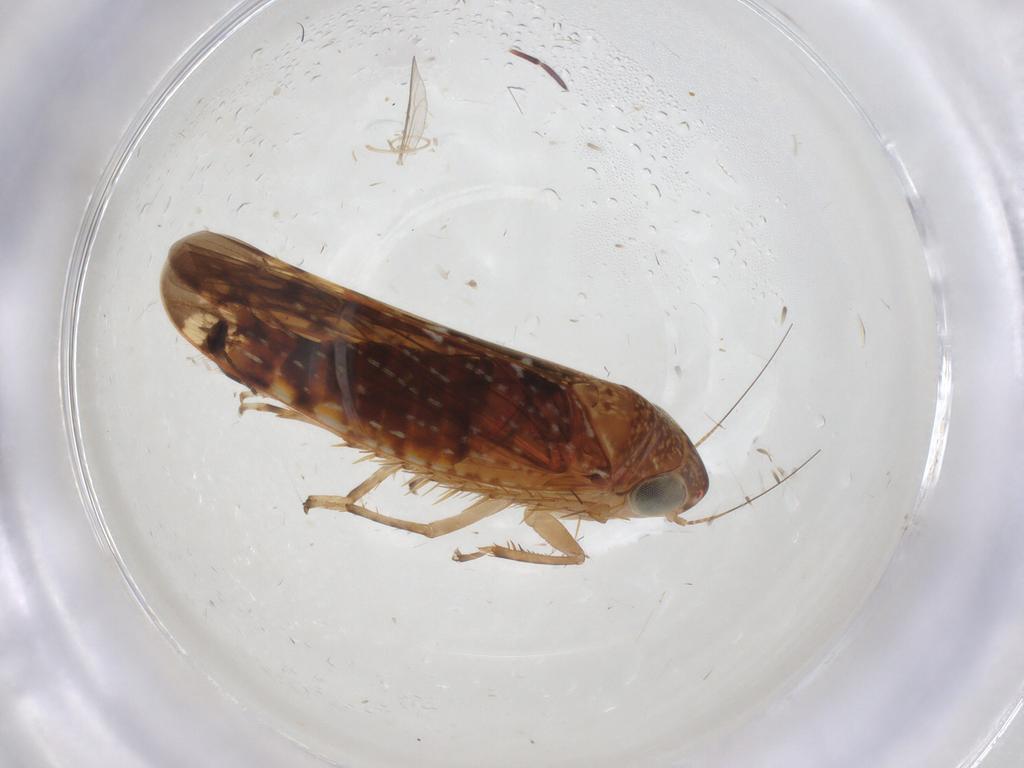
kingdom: Animalia
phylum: Arthropoda
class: Insecta
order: Hemiptera
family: Cicadellidae
